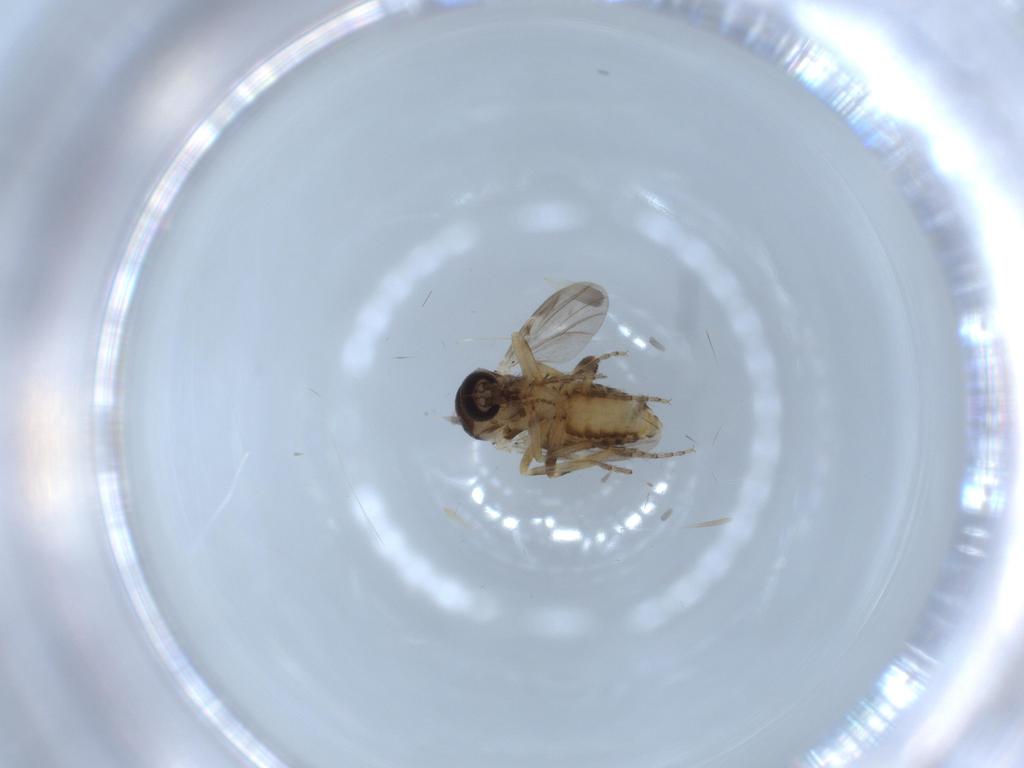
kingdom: Animalia
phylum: Arthropoda
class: Insecta
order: Diptera
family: Ceratopogonidae
